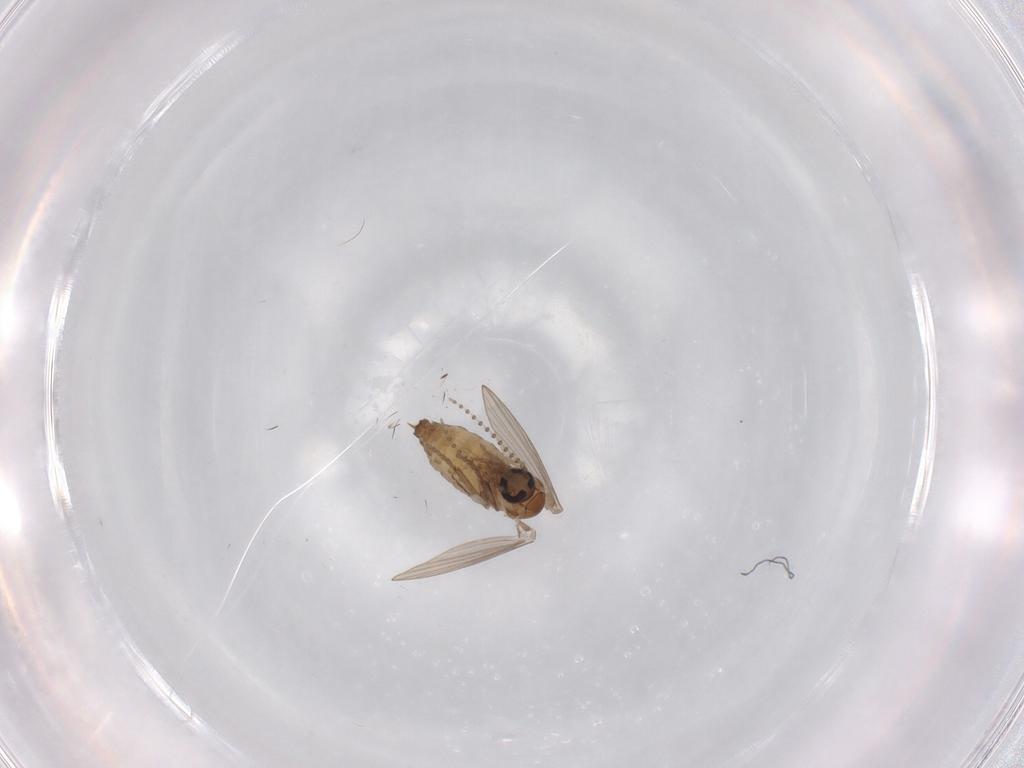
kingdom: Animalia
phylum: Arthropoda
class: Insecta
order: Diptera
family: Psychodidae
